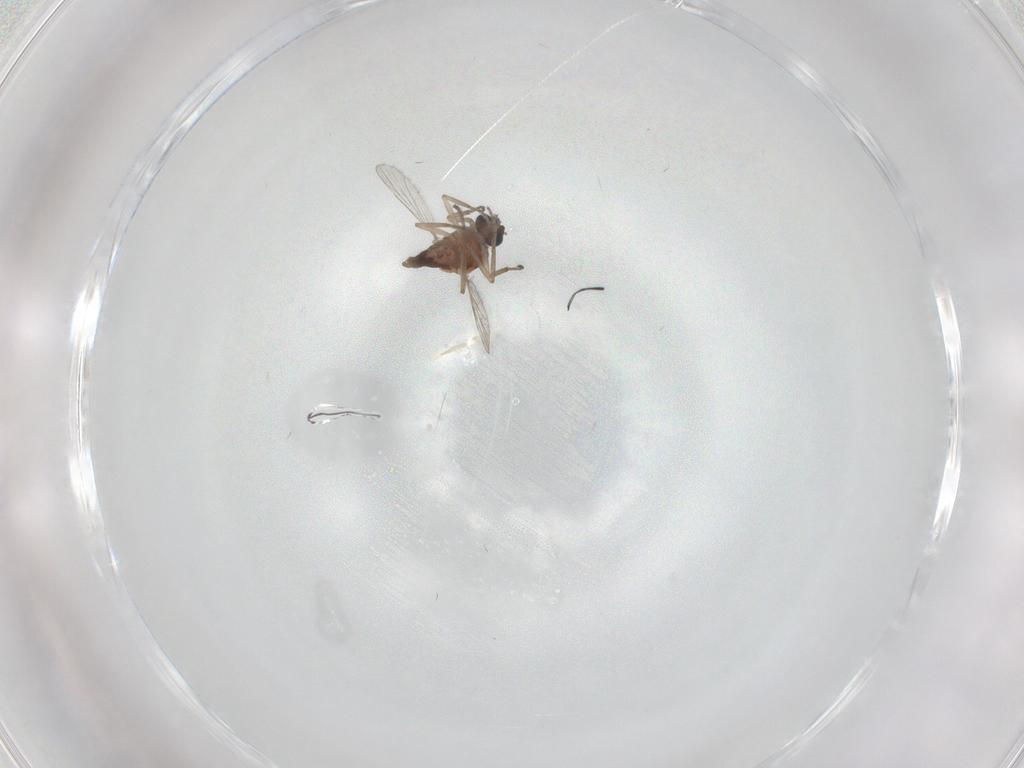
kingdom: Animalia
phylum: Arthropoda
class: Insecta
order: Diptera
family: Ceratopogonidae
